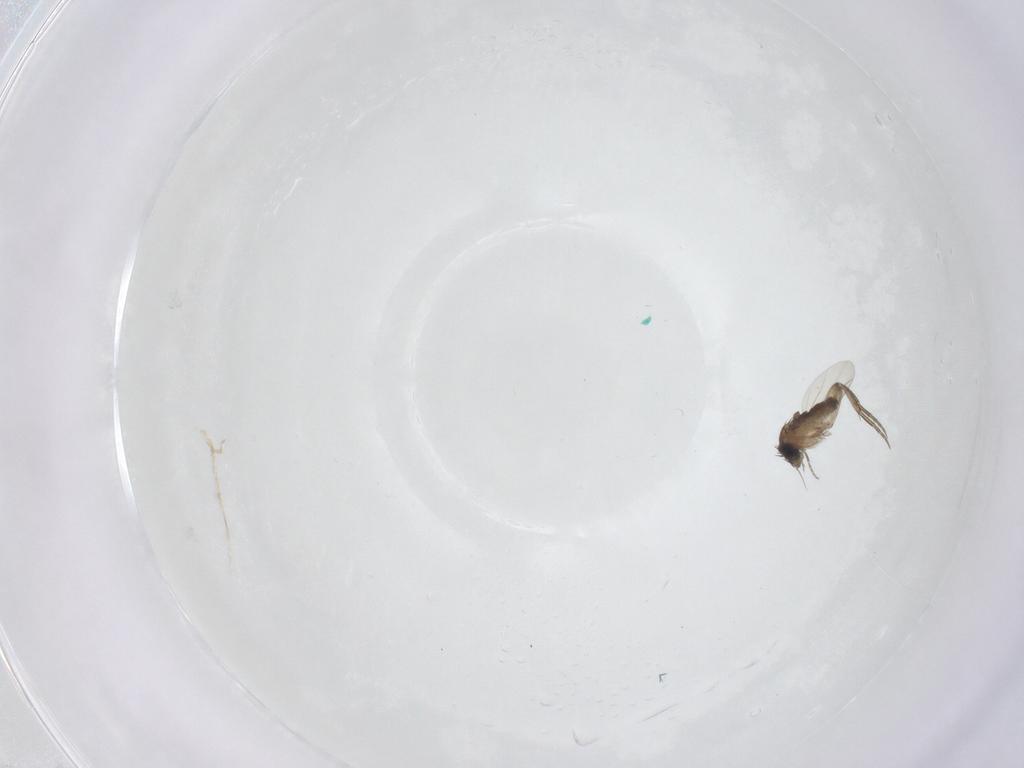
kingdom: Animalia
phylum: Arthropoda
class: Insecta
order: Diptera
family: Phoridae
